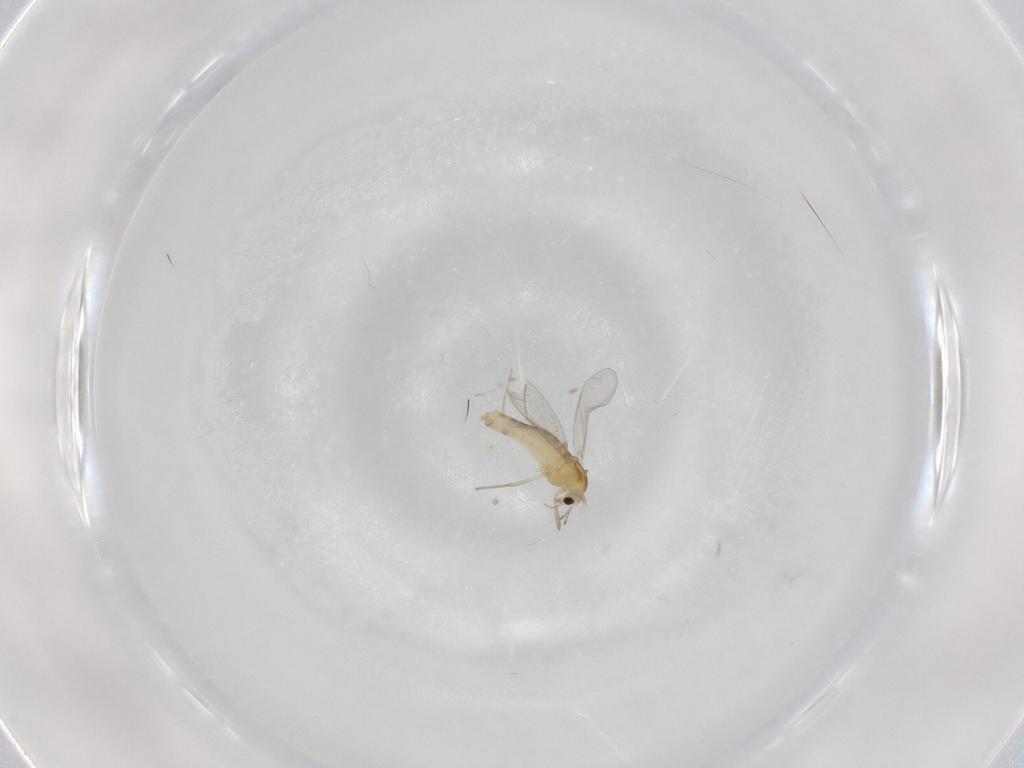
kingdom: Animalia
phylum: Arthropoda
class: Insecta
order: Diptera
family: Chironomidae
